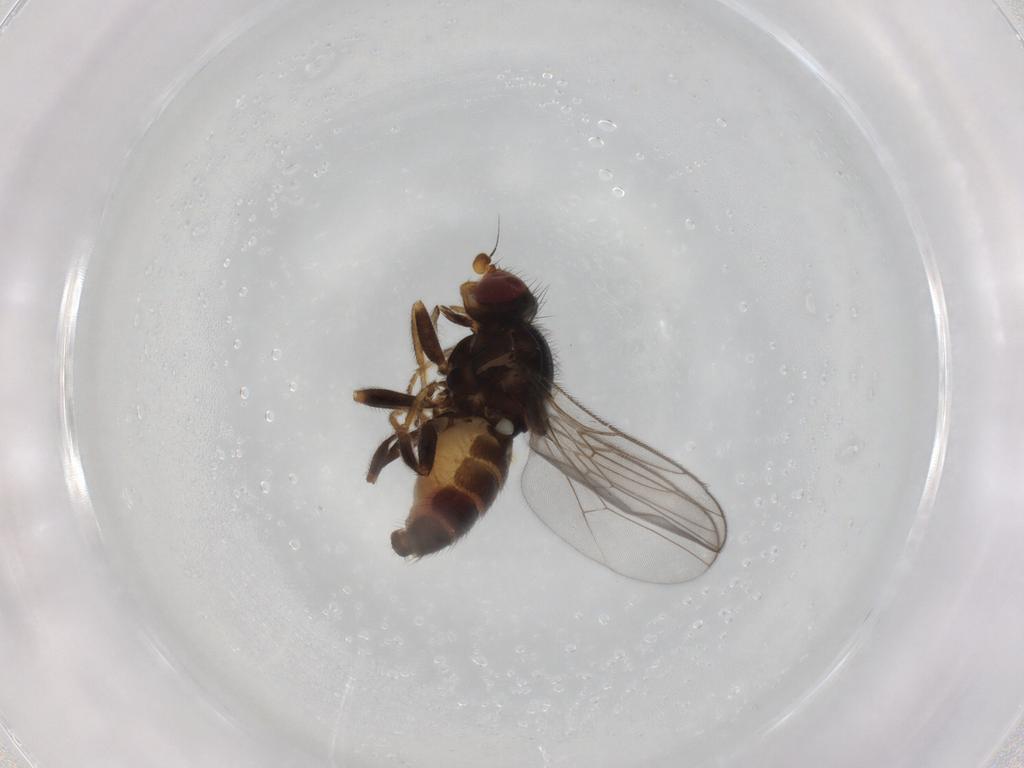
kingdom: Animalia
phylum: Arthropoda
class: Insecta
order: Diptera
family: Chloropidae
